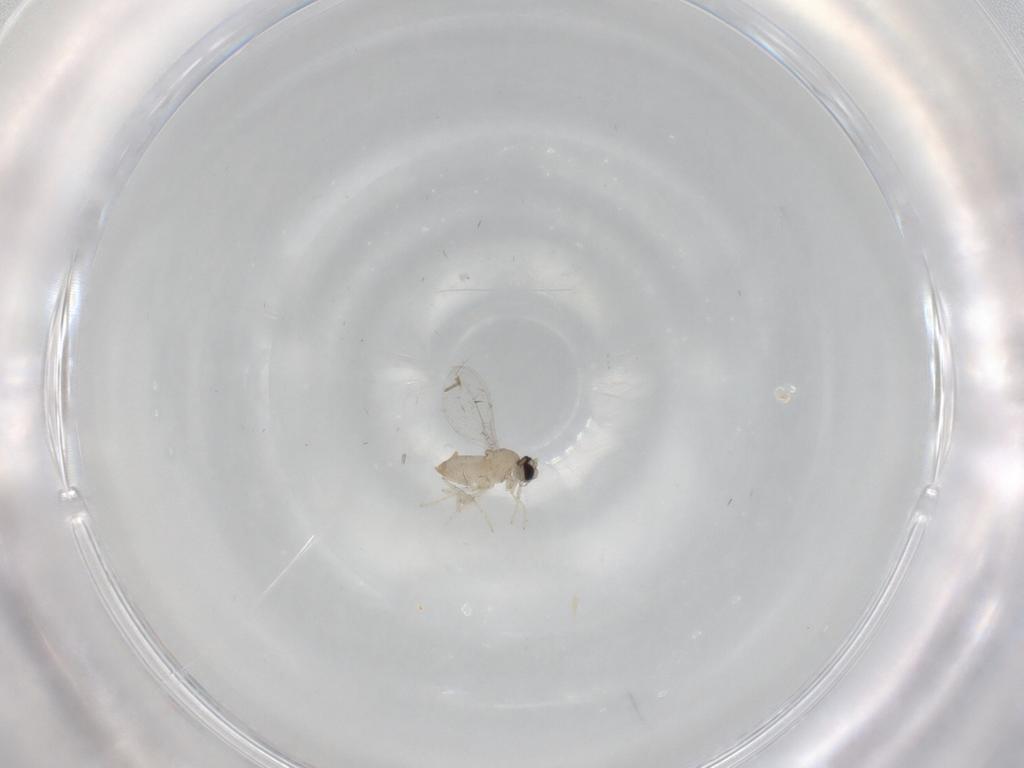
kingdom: Animalia
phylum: Arthropoda
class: Insecta
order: Diptera
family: Cecidomyiidae
